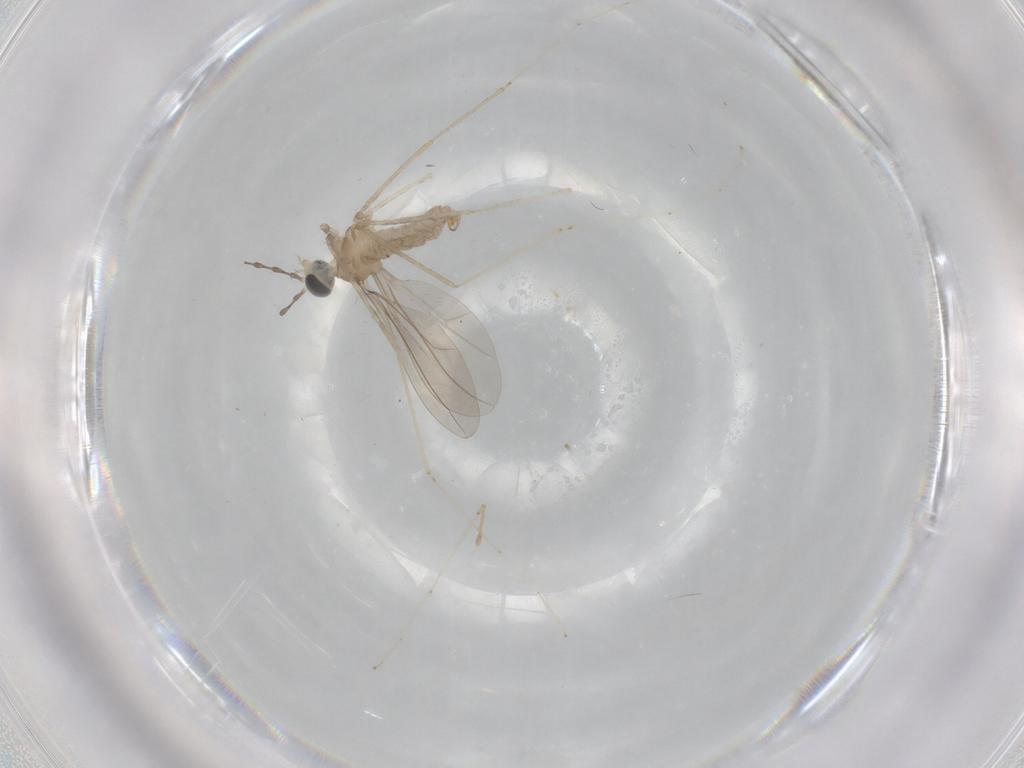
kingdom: Animalia
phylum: Arthropoda
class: Insecta
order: Diptera
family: Cecidomyiidae
